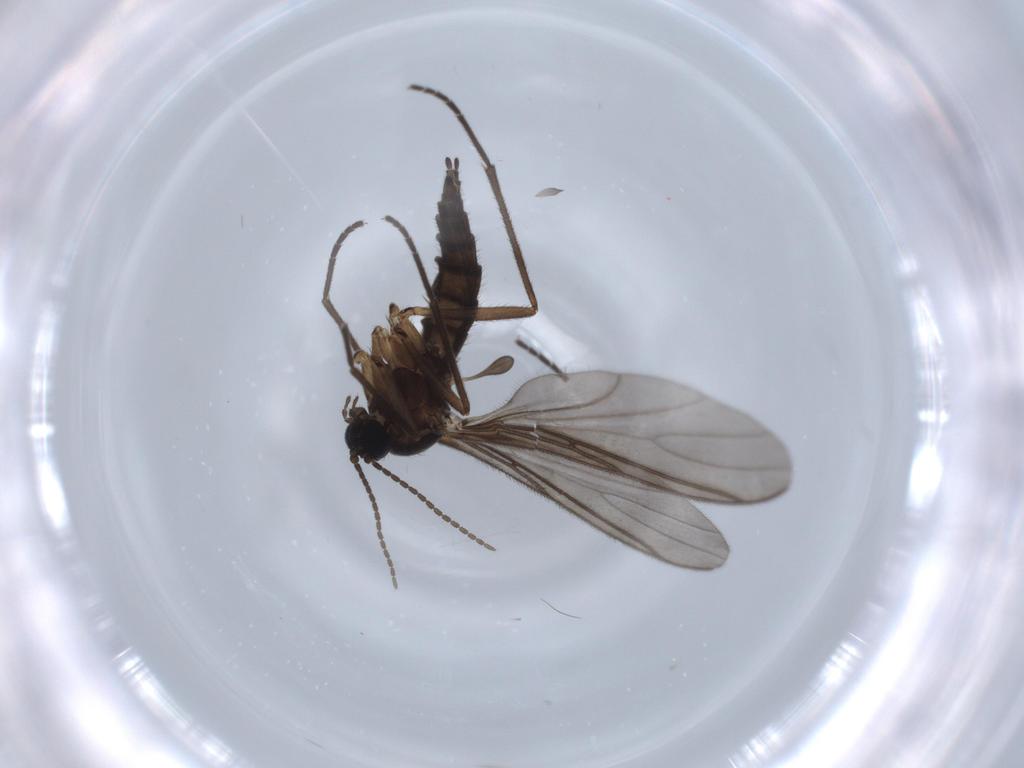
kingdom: Animalia
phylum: Arthropoda
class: Insecta
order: Diptera
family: Sciaridae
